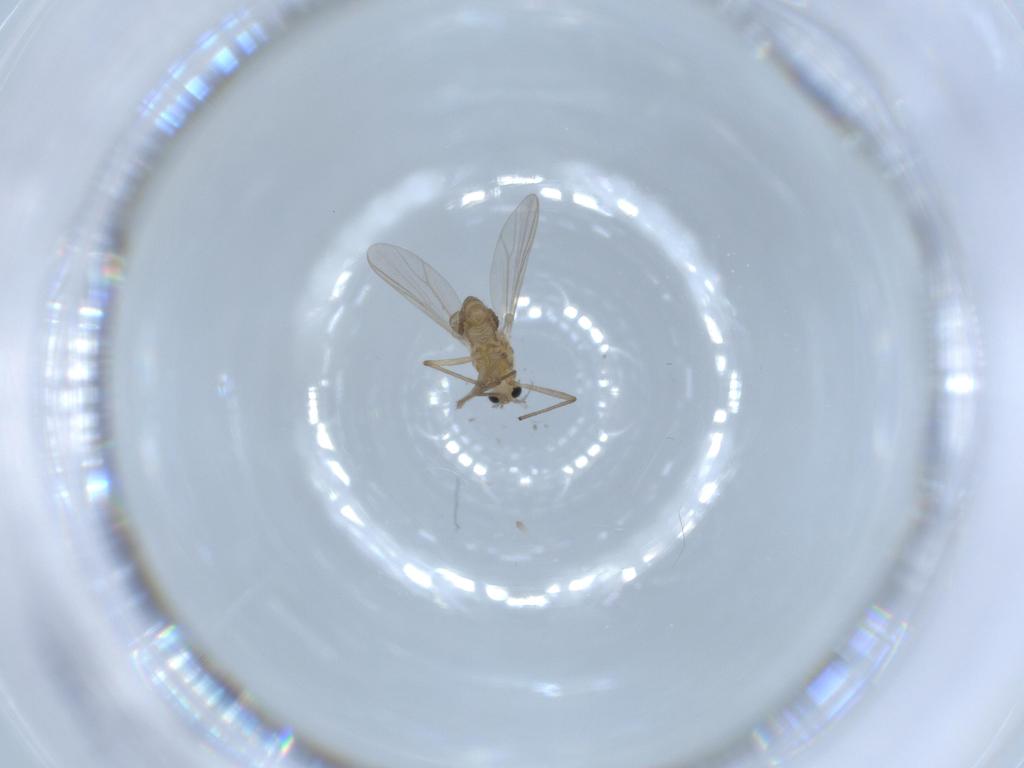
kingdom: Animalia
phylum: Arthropoda
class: Insecta
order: Diptera
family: Chironomidae
